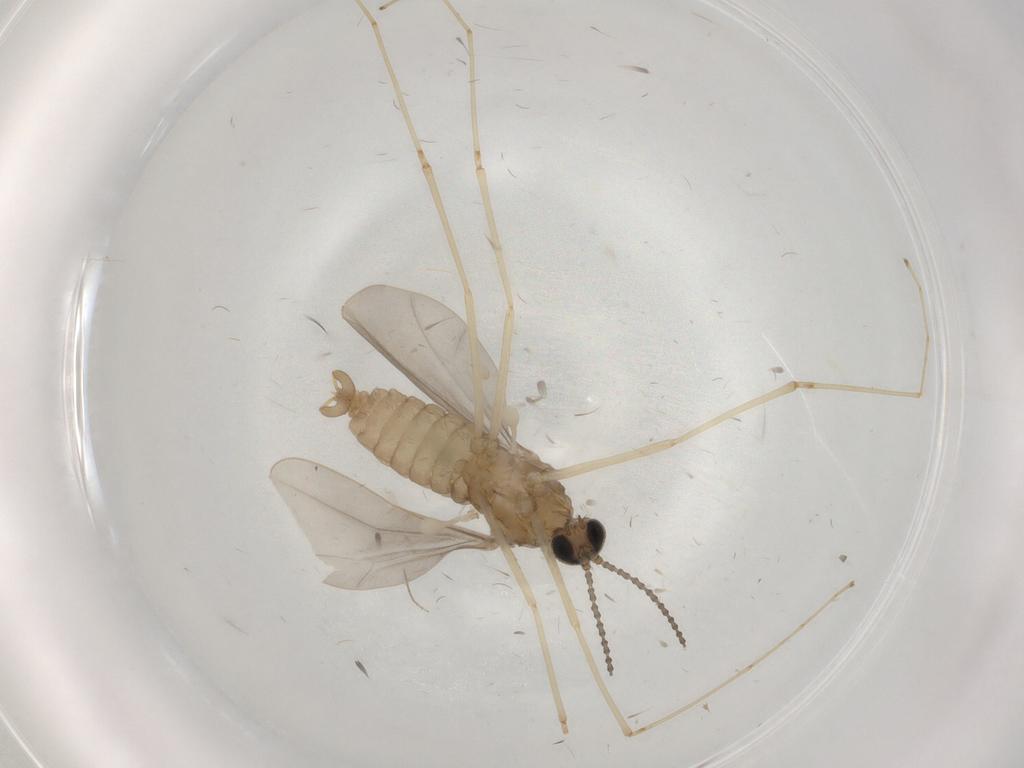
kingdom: Animalia
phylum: Arthropoda
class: Insecta
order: Diptera
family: Cecidomyiidae
